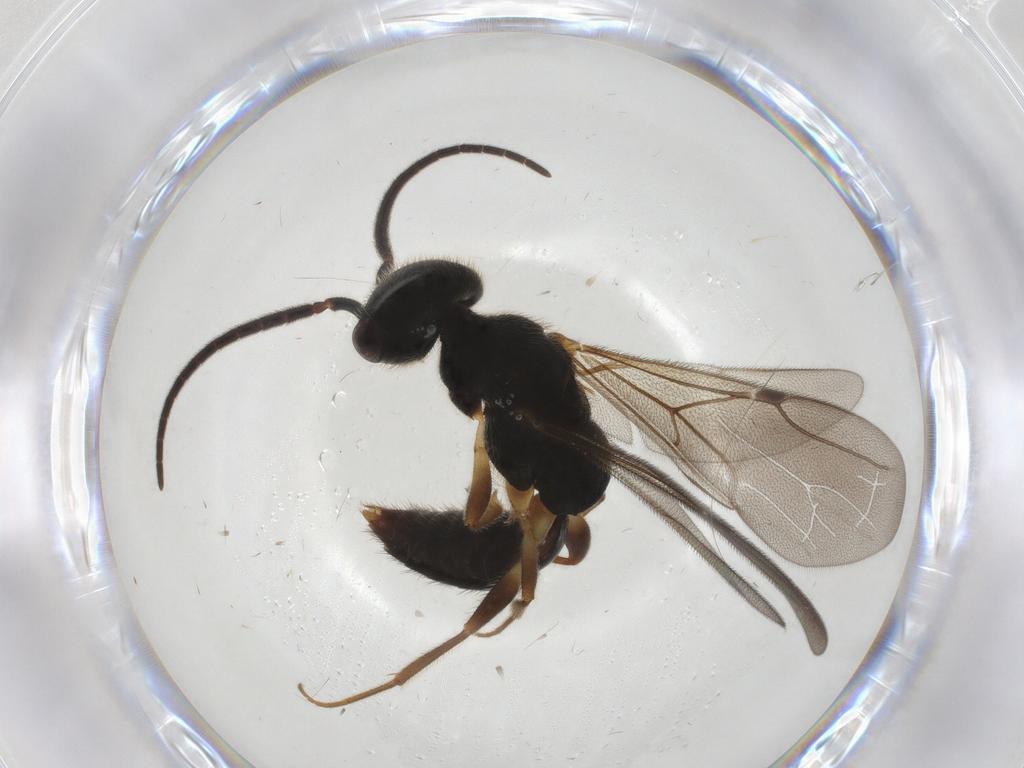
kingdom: Animalia
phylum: Arthropoda
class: Insecta
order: Hymenoptera
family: Bethylidae
